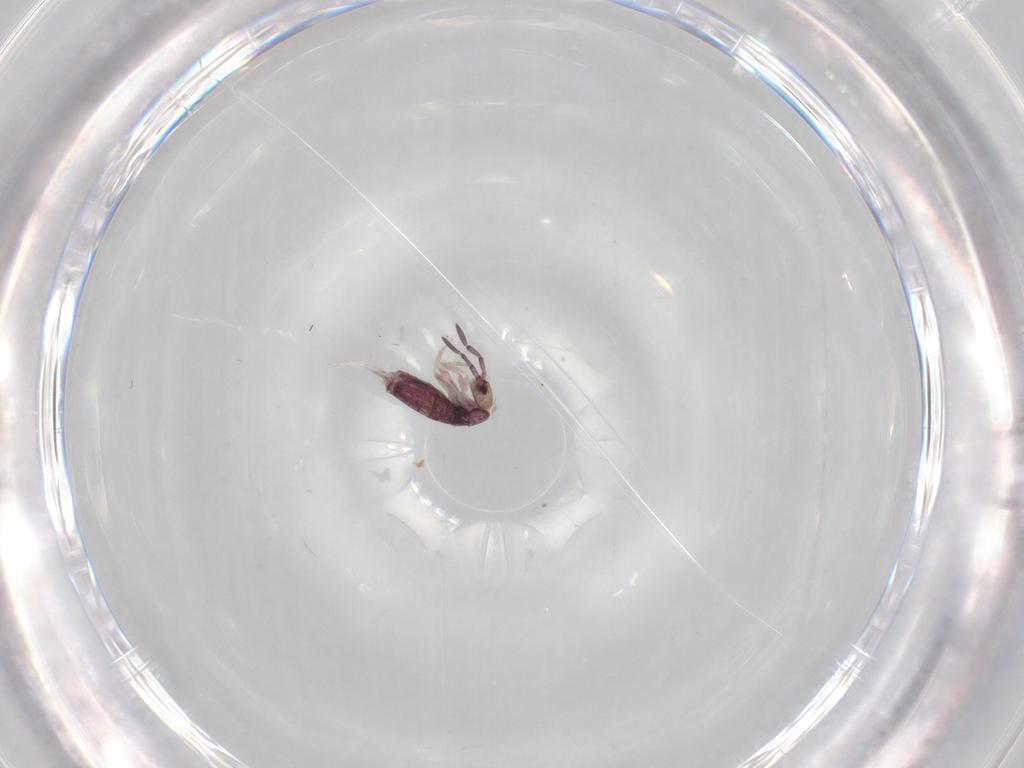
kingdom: Animalia
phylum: Arthropoda
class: Collembola
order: Entomobryomorpha
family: Entomobryidae
